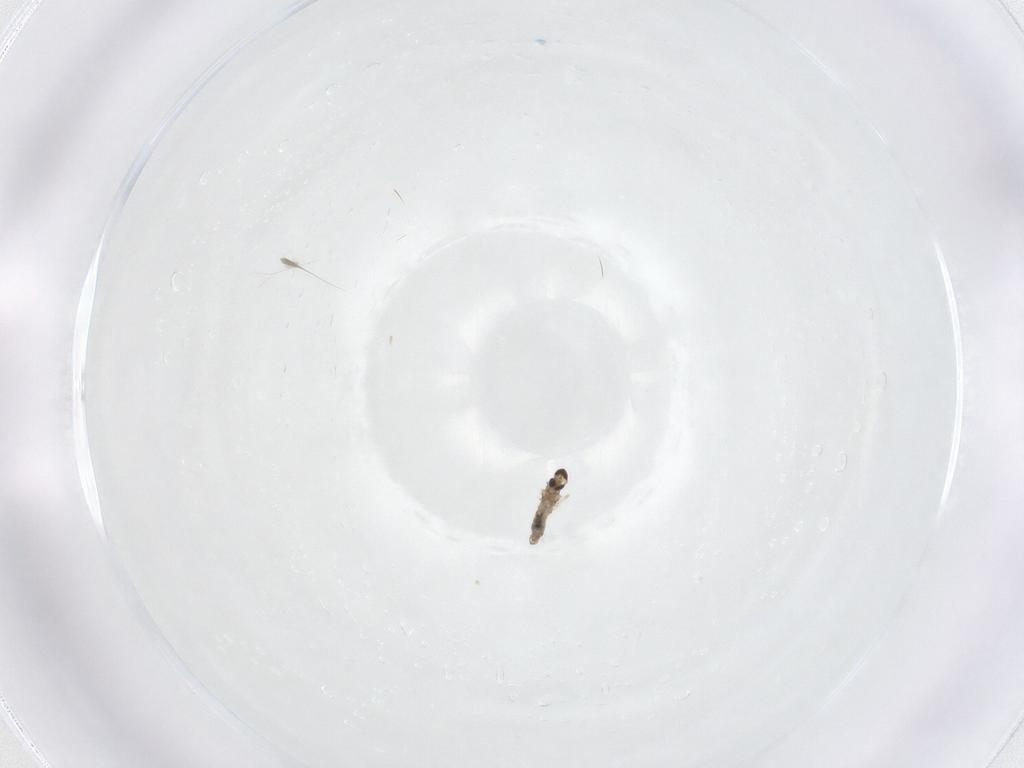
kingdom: Animalia
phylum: Arthropoda
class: Insecta
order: Diptera
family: Cecidomyiidae
